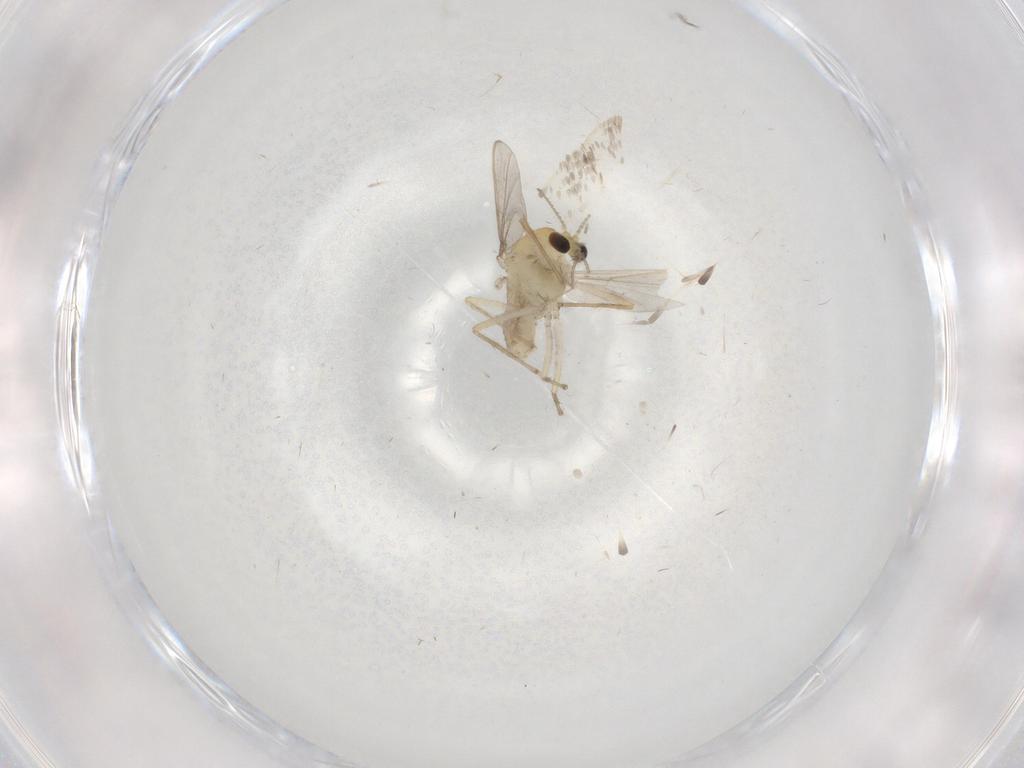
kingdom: Animalia
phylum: Arthropoda
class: Insecta
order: Diptera
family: Chironomidae
